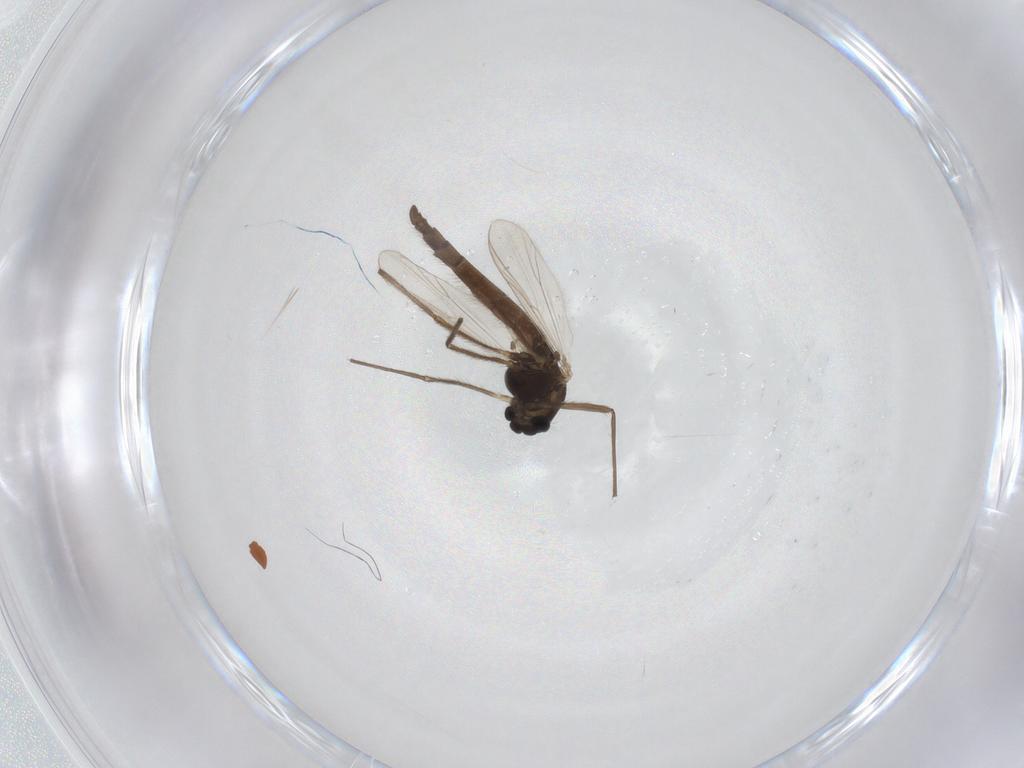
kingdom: Animalia
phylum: Arthropoda
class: Insecta
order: Diptera
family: Chironomidae
